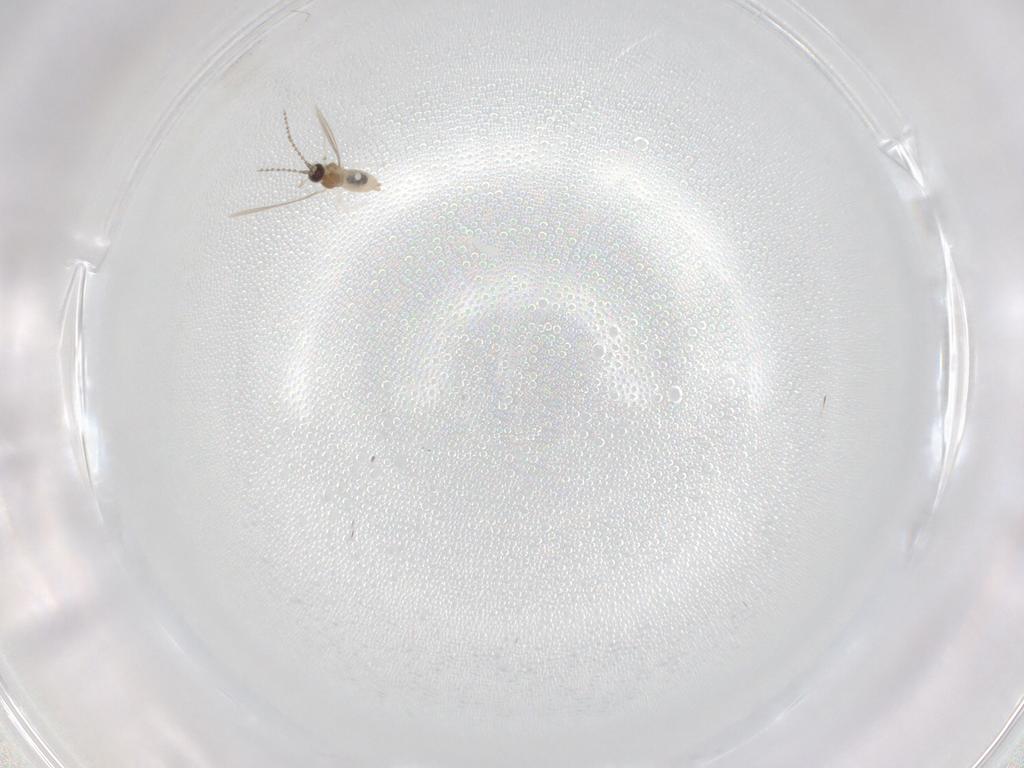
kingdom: Animalia
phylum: Arthropoda
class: Insecta
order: Diptera
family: Cecidomyiidae
